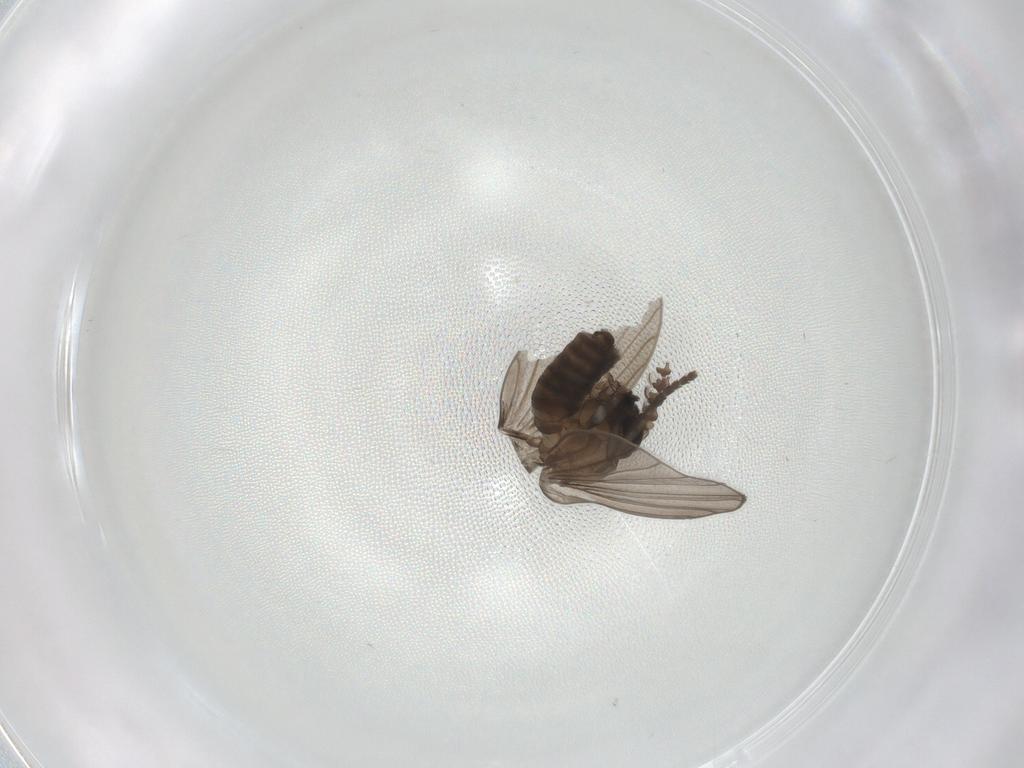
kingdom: Animalia
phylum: Arthropoda
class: Insecta
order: Diptera
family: Psychodidae
